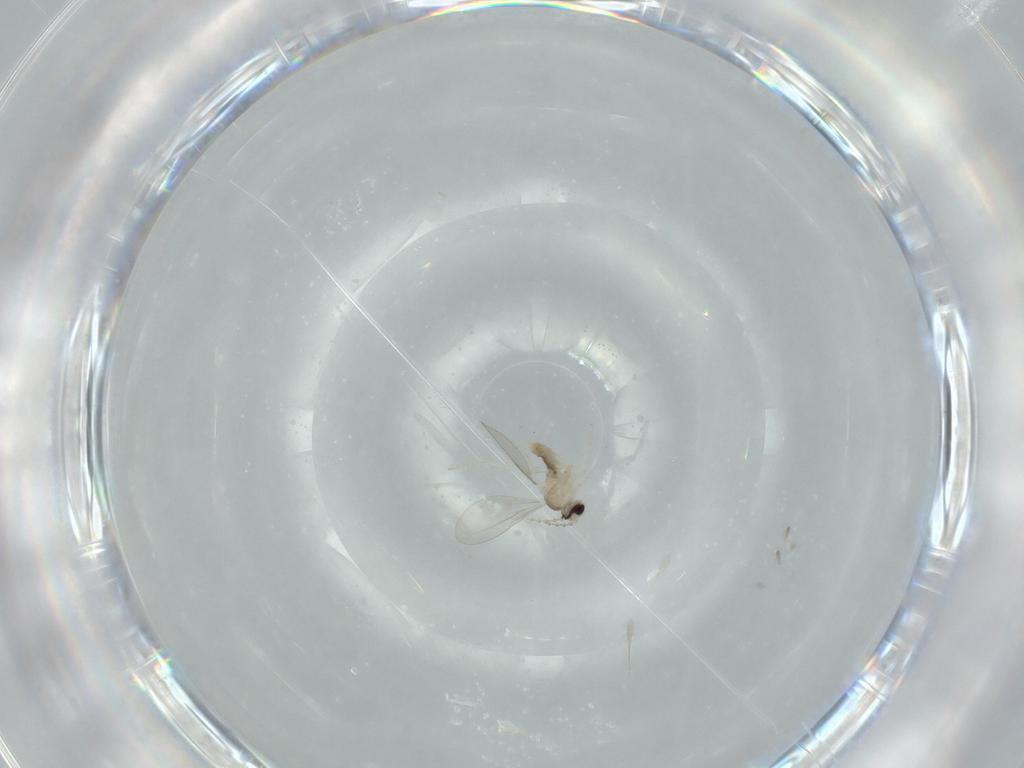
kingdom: Animalia
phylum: Arthropoda
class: Insecta
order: Diptera
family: Cecidomyiidae
